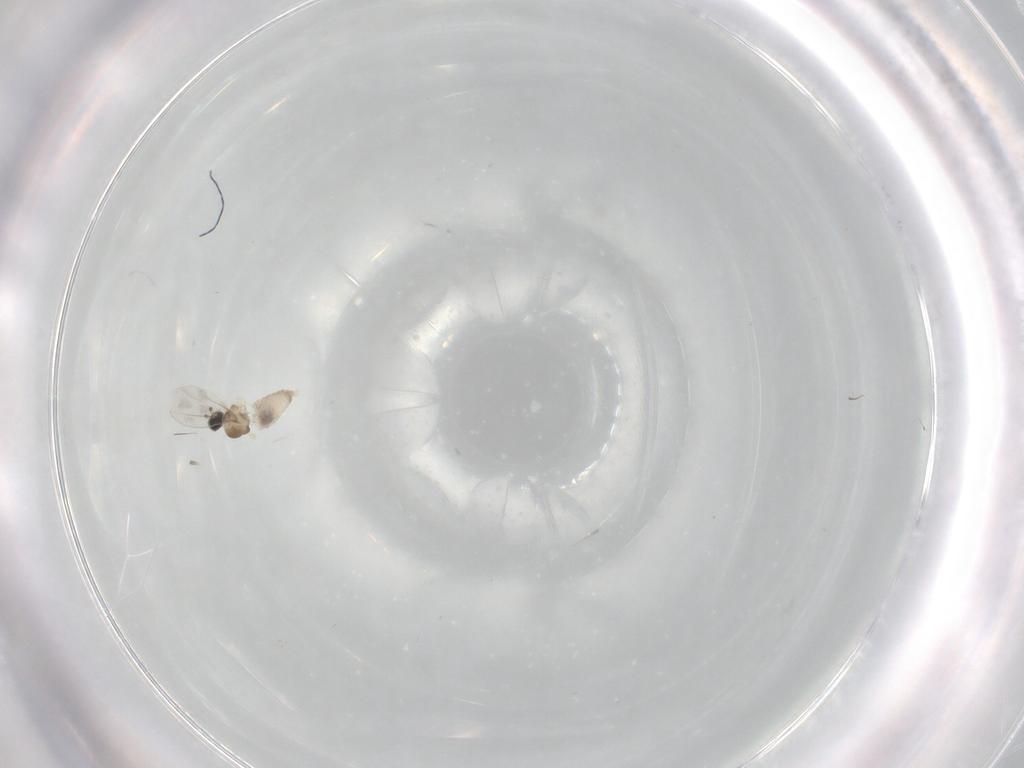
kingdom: Animalia
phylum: Arthropoda
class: Insecta
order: Diptera
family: Cecidomyiidae
